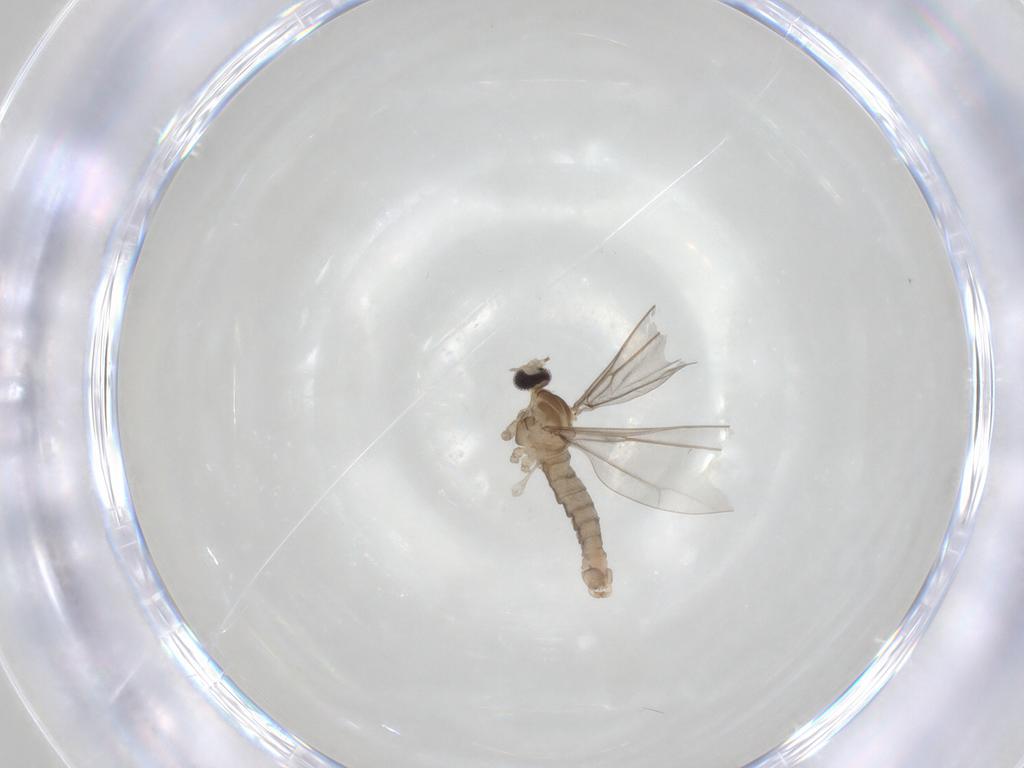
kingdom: Animalia
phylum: Arthropoda
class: Insecta
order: Diptera
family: Cecidomyiidae
